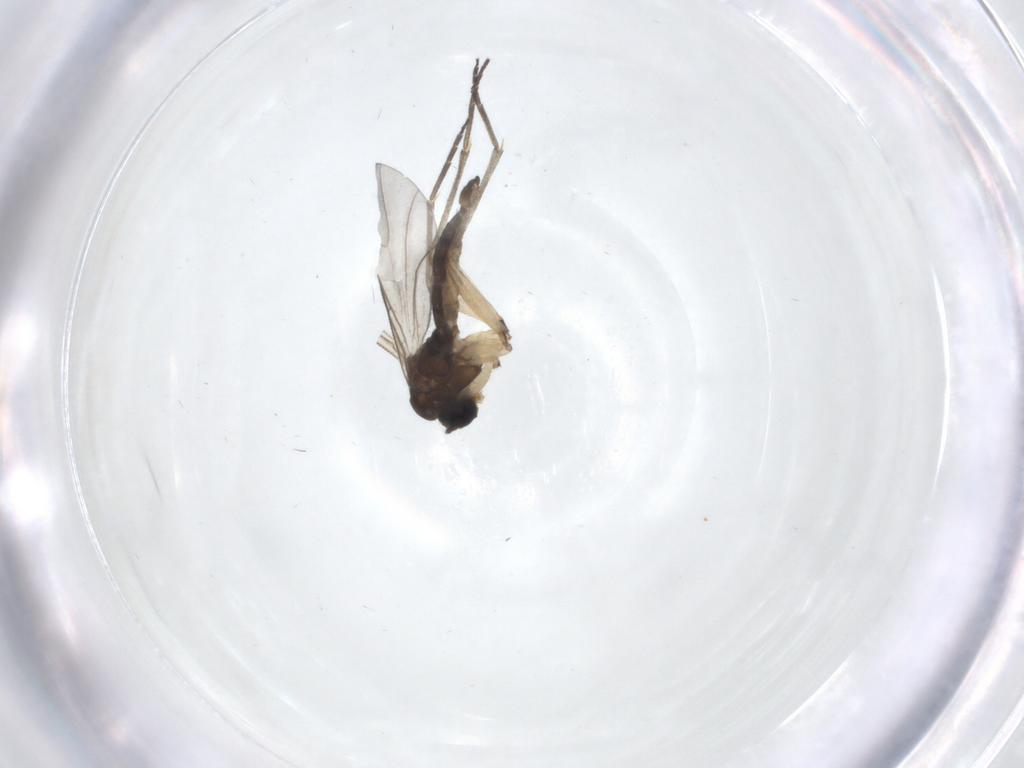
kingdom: Animalia
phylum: Arthropoda
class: Insecta
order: Diptera
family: Sciaridae
